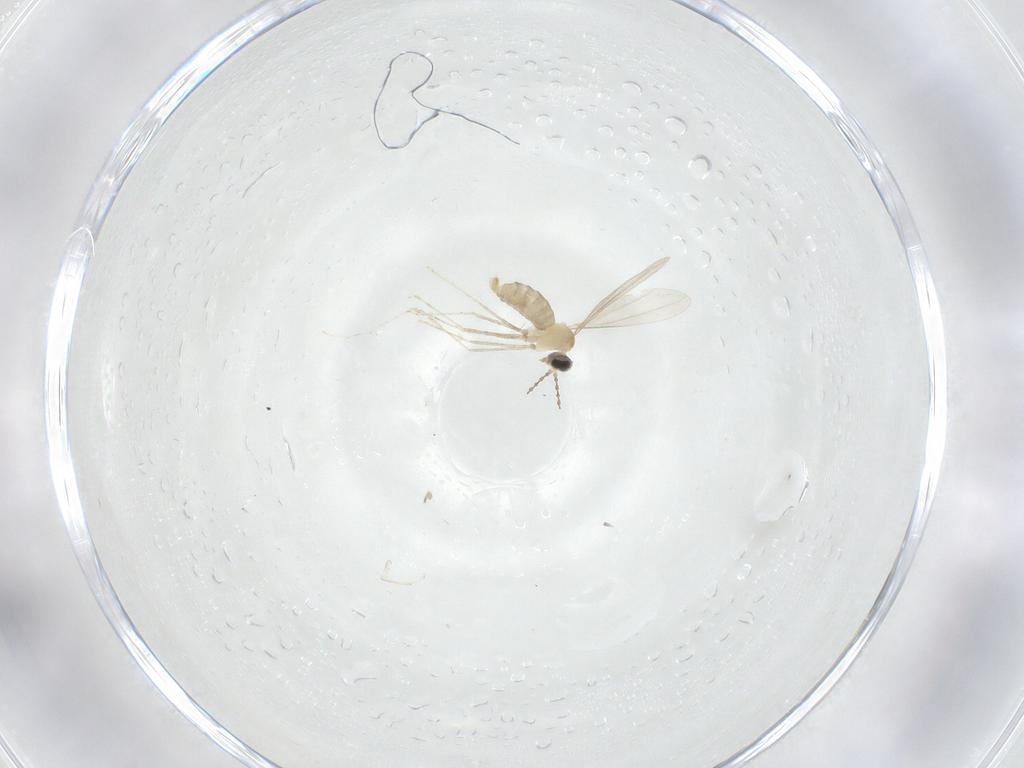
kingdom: Animalia
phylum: Arthropoda
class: Insecta
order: Diptera
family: Cecidomyiidae
